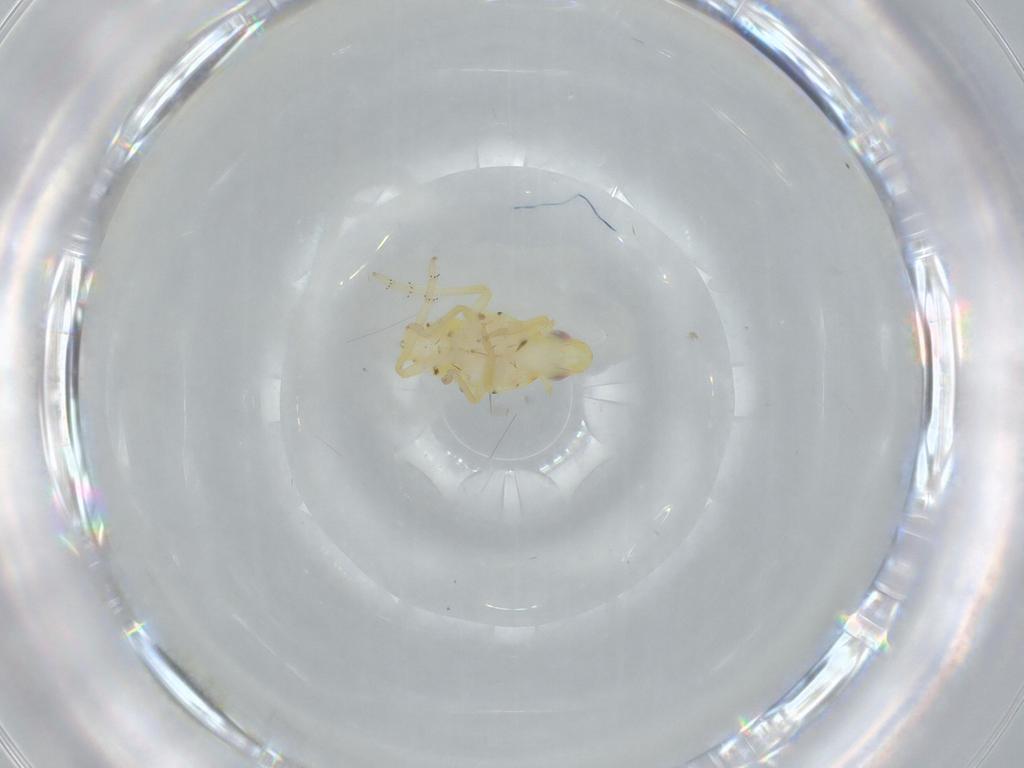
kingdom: Animalia
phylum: Arthropoda
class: Insecta
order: Hemiptera
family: Tropiduchidae
